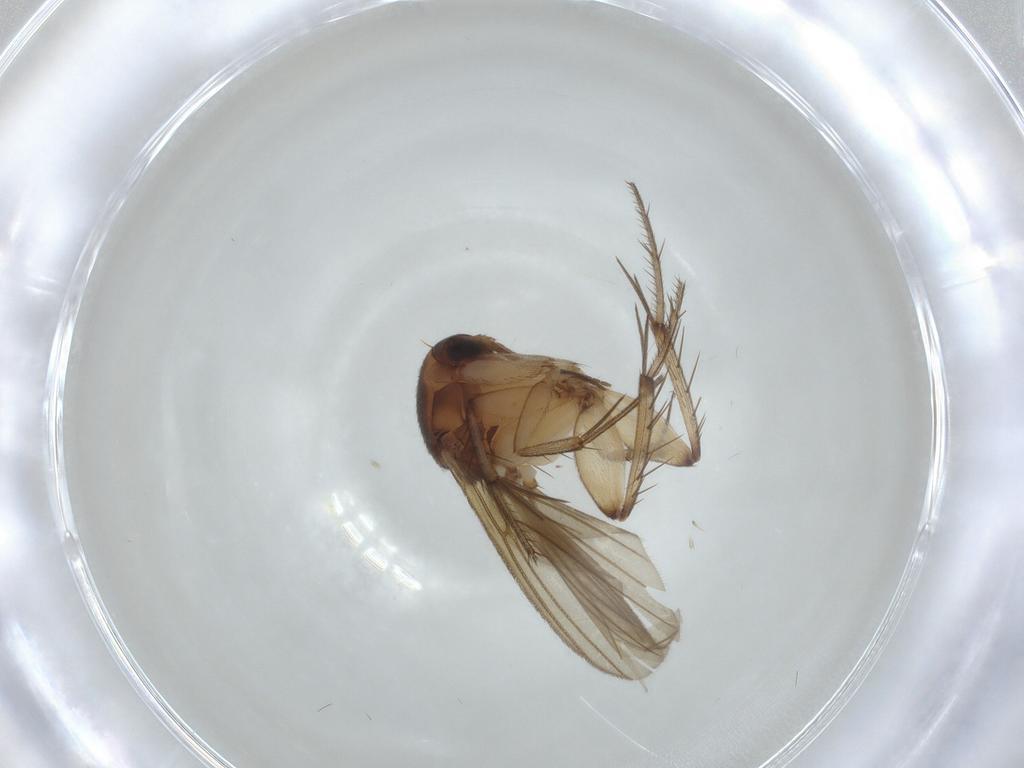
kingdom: Animalia
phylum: Arthropoda
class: Insecta
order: Diptera
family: Mycetophilidae
